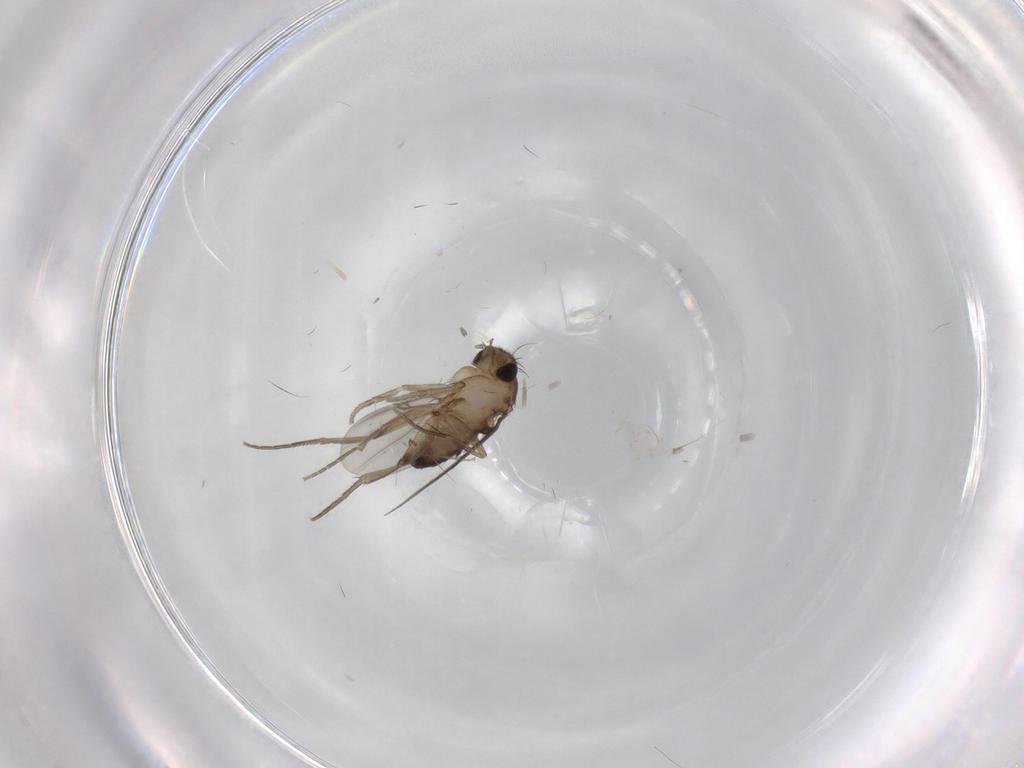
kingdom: Animalia
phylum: Arthropoda
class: Insecta
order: Diptera
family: Phoridae
